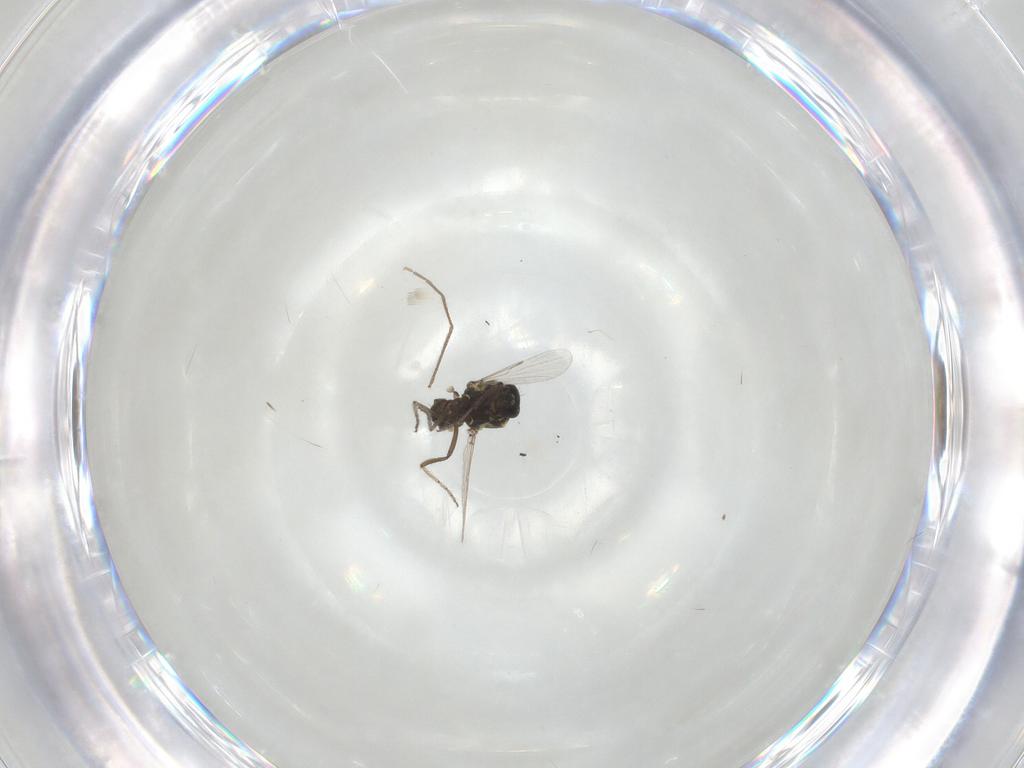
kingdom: Animalia
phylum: Arthropoda
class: Insecta
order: Diptera
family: Ceratopogonidae
